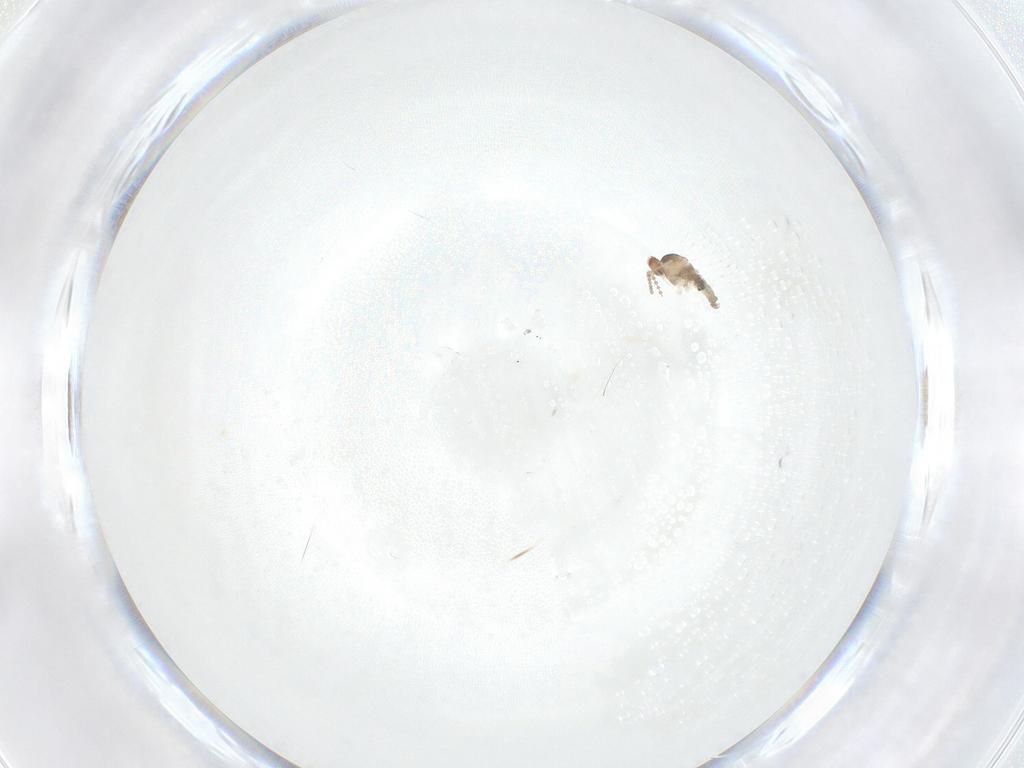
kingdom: Animalia
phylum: Arthropoda
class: Insecta
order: Diptera
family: Cecidomyiidae
